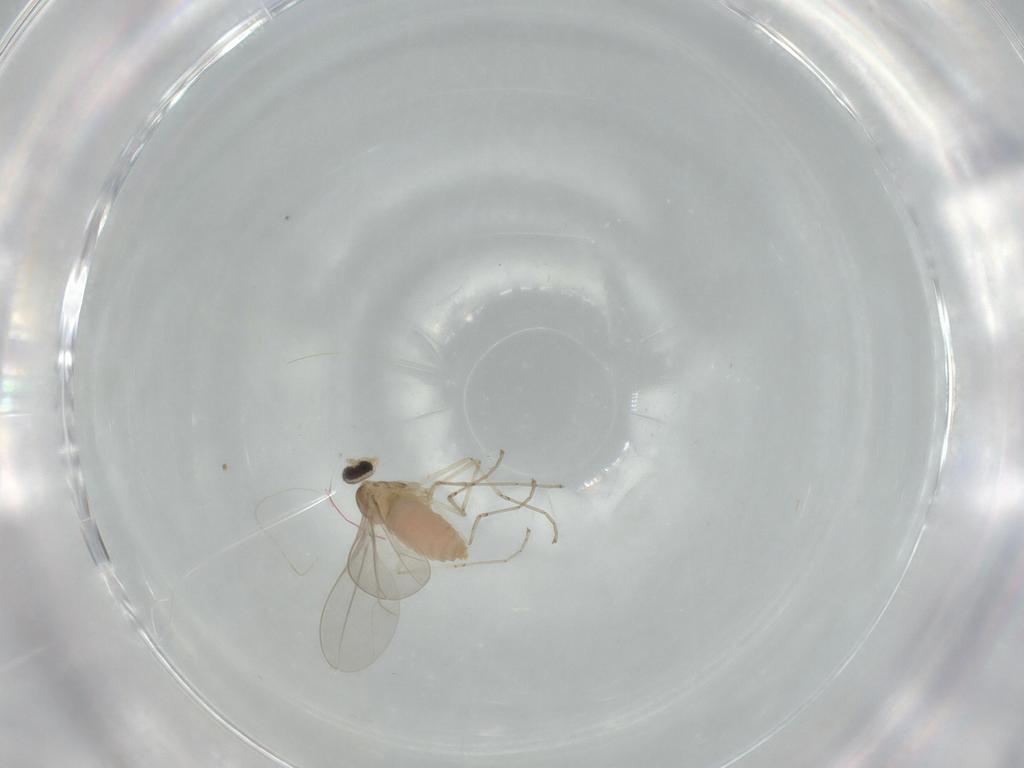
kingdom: Animalia
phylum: Arthropoda
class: Insecta
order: Diptera
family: Cecidomyiidae
